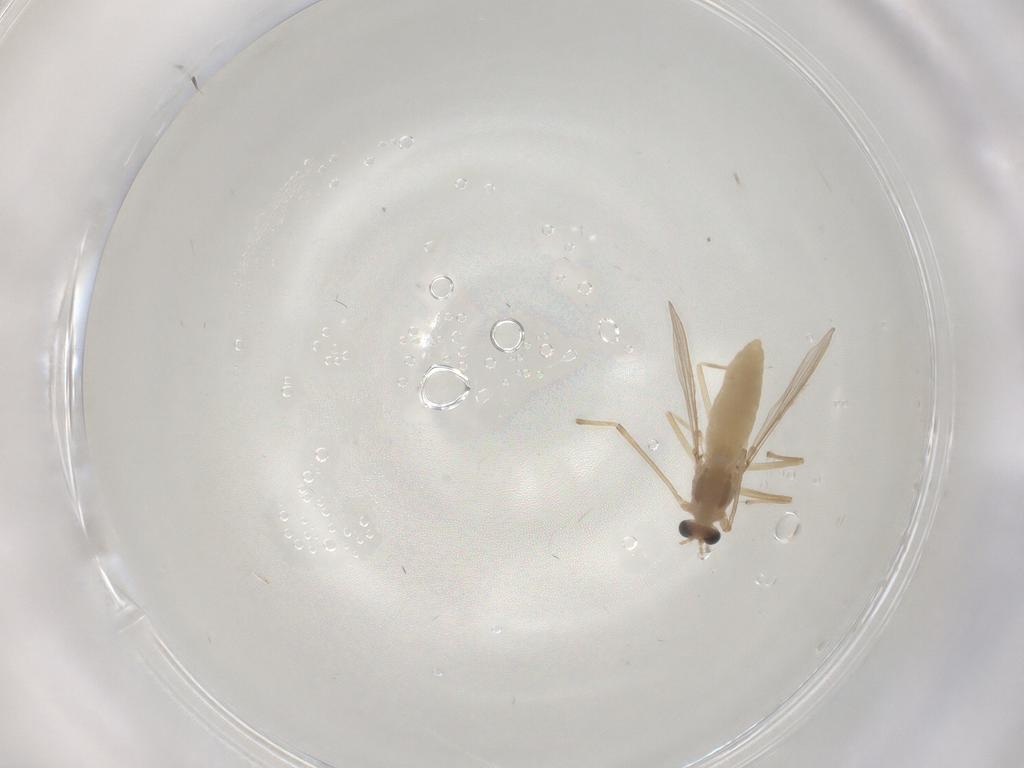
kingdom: Animalia
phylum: Arthropoda
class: Insecta
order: Diptera
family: Chironomidae
